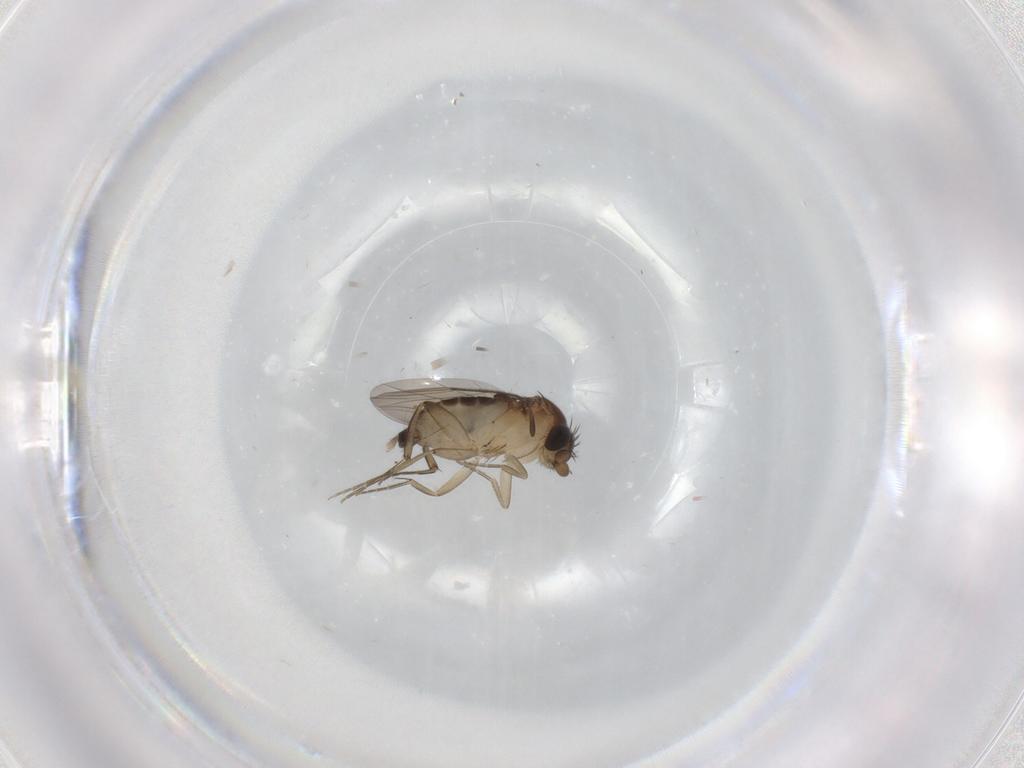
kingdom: Animalia
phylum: Arthropoda
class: Insecta
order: Diptera
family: Phoridae
